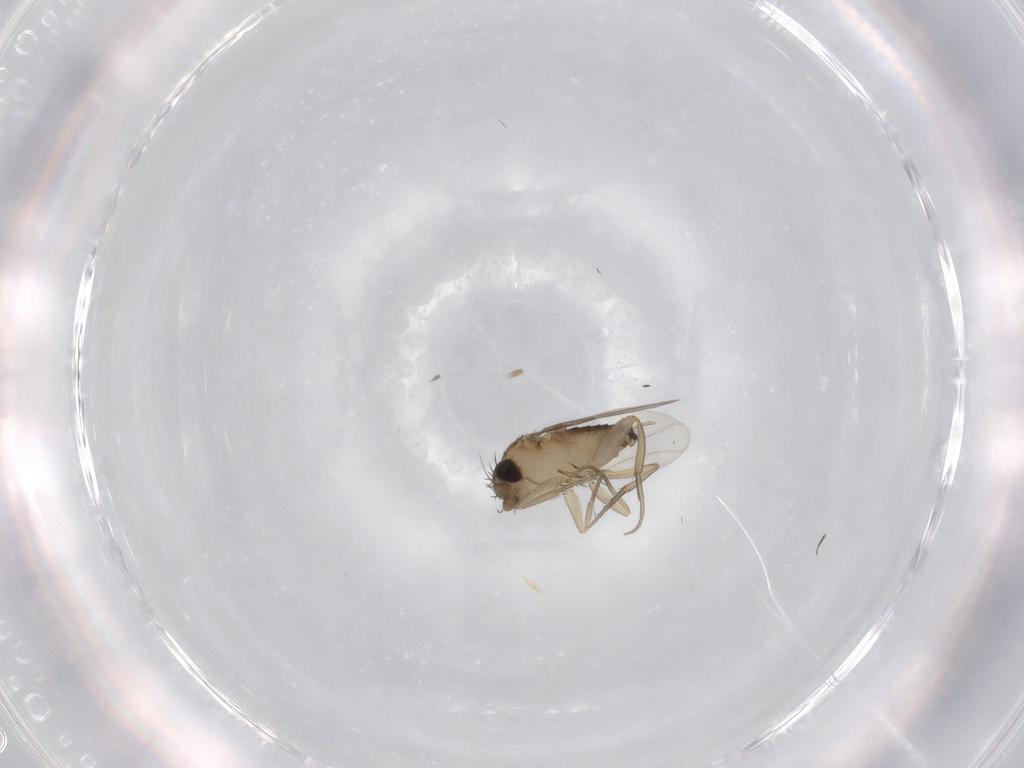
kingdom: Animalia
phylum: Arthropoda
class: Insecta
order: Diptera
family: Phoridae
